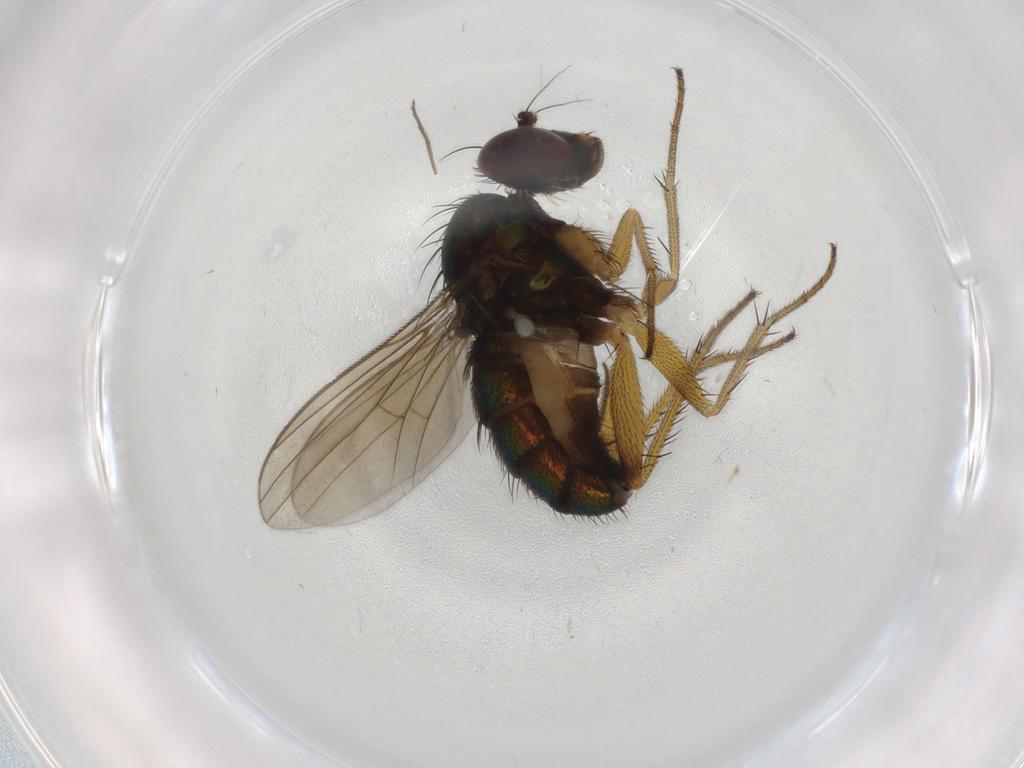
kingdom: Animalia
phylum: Arthropoda
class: Insecta
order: Diptera
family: Dolichopodidae
